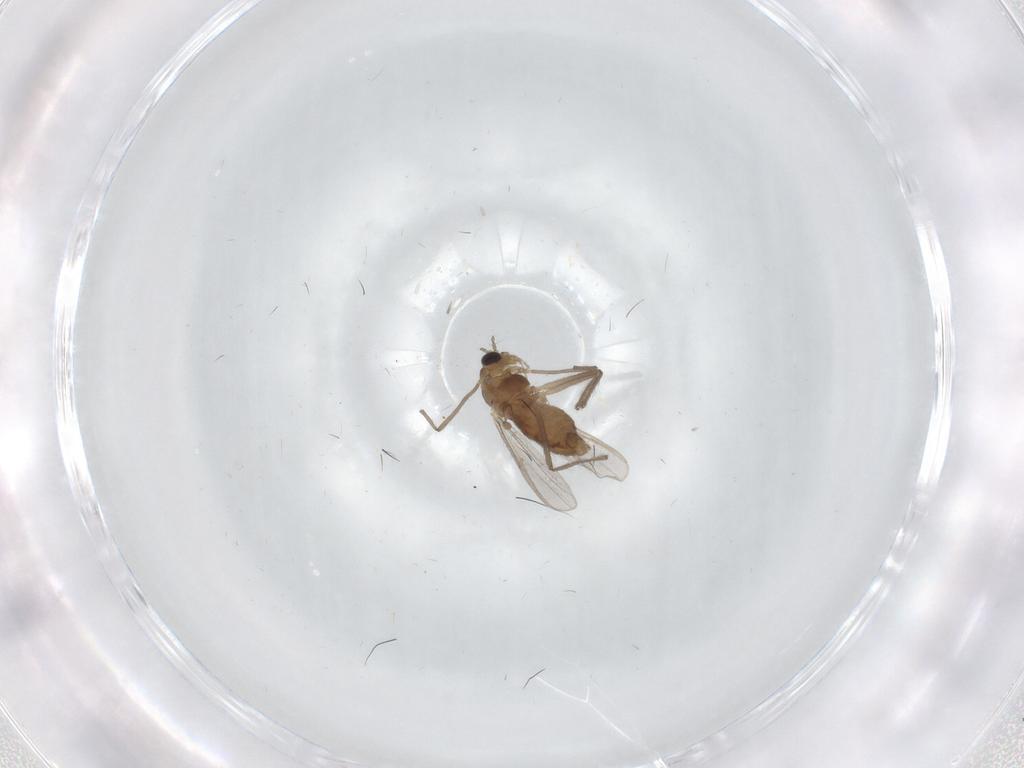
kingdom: Animalia
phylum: Arthropoda
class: Insecta
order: Diptera
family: Chironomidae
